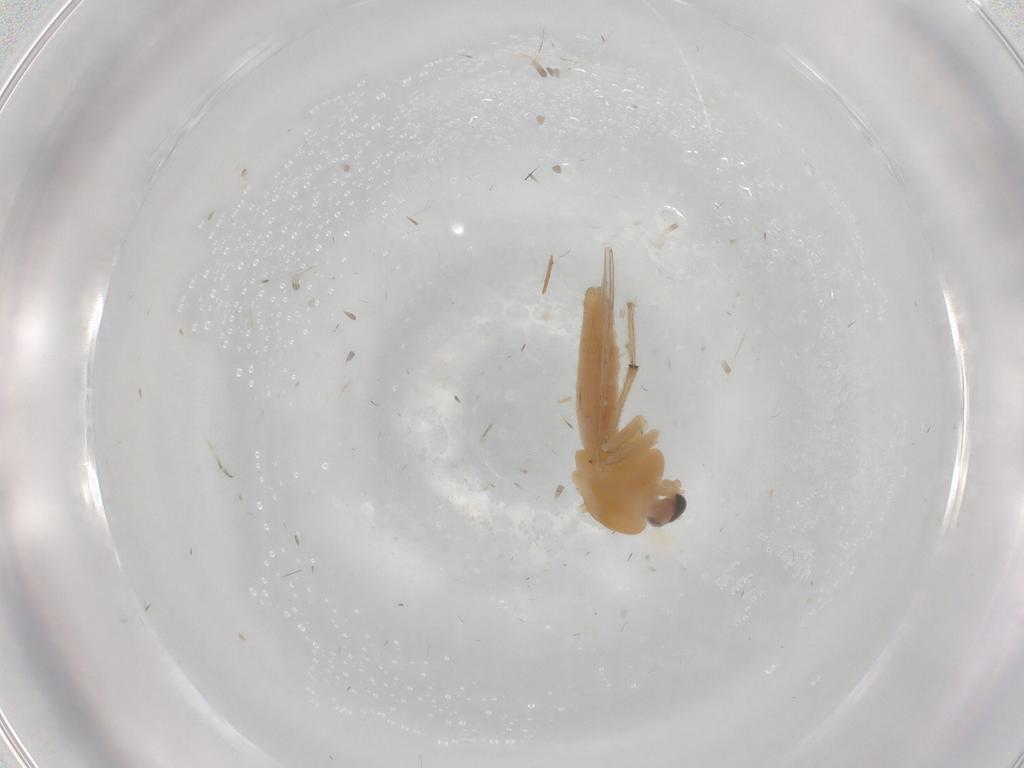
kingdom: Animalia
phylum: Arthropoda
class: Insecta
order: Diptera
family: Chironomidae
